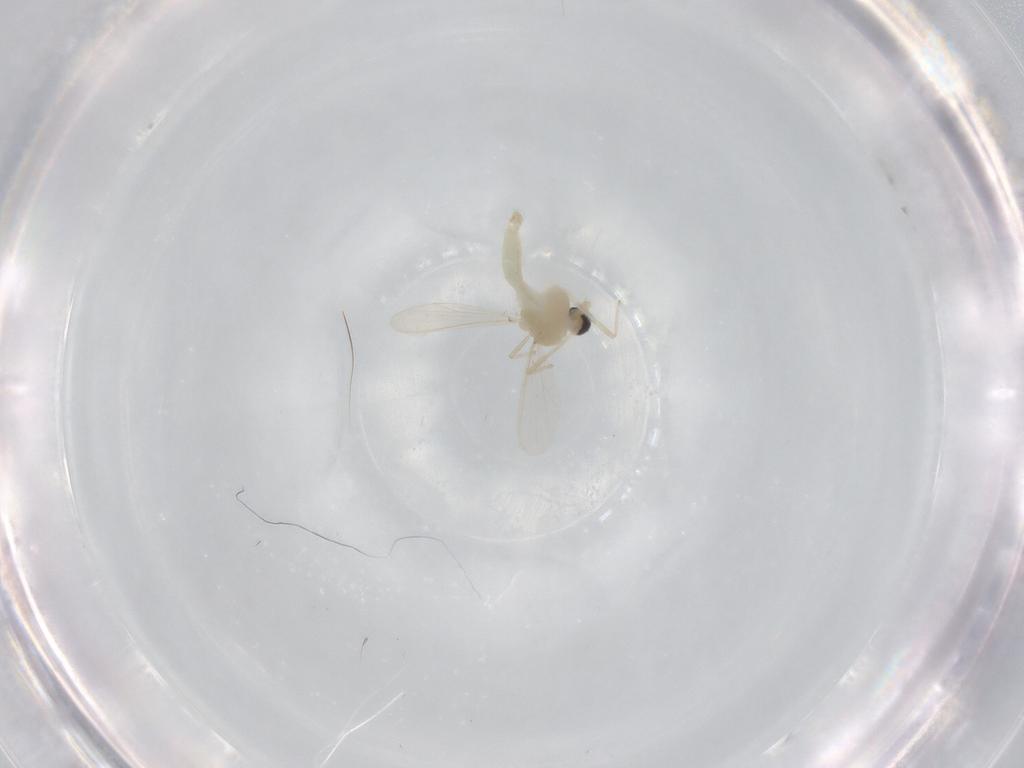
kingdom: Animalia
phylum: Arthropoda
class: Insecta
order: Diptera
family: Chironomidae
